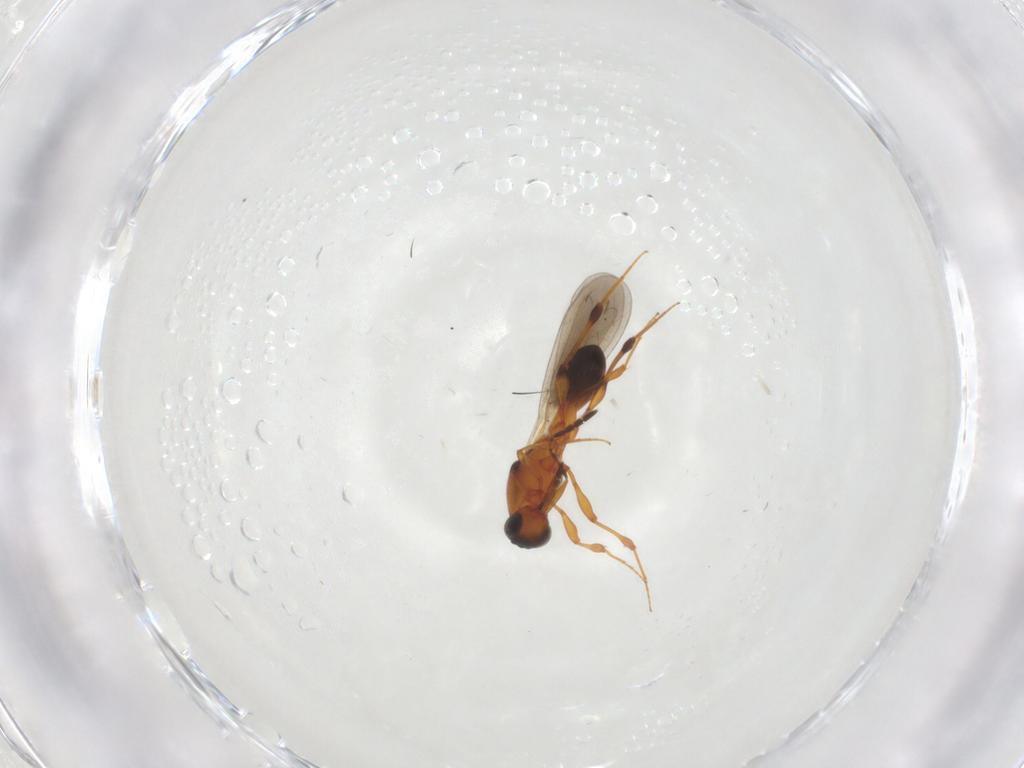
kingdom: Animalia
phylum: Arthropoda
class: Insecta
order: Hymenoptera
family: Platygastridae
